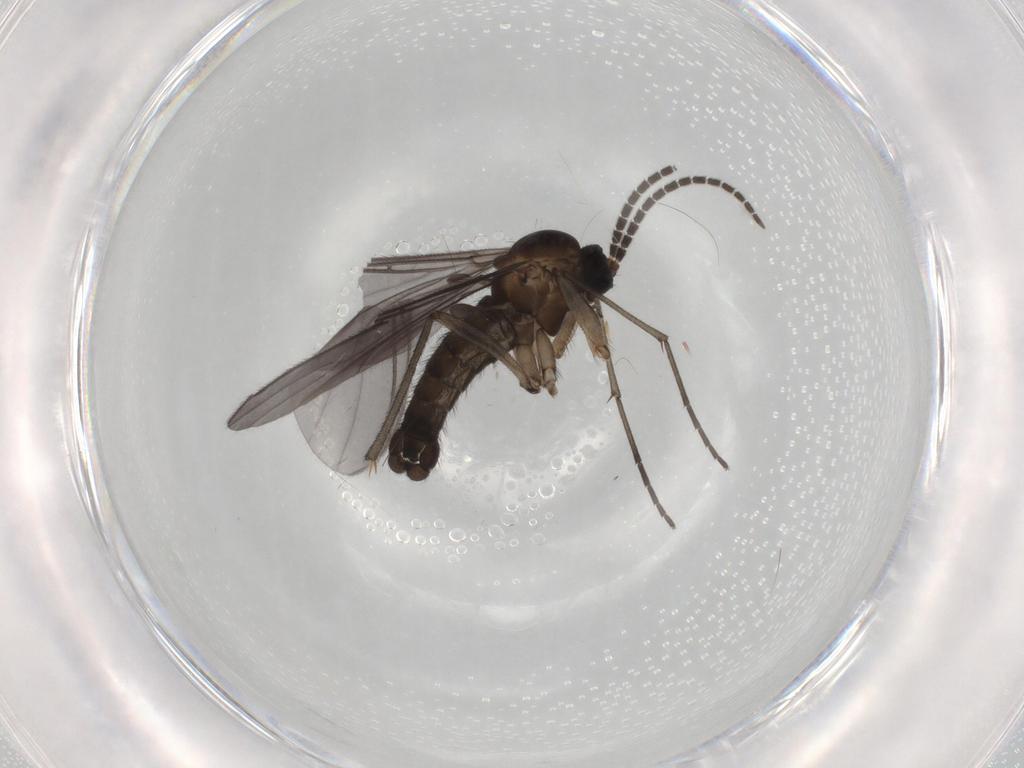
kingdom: Animalia
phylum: Arthropoda
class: Insecta
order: Diptera
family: Sciaridae
